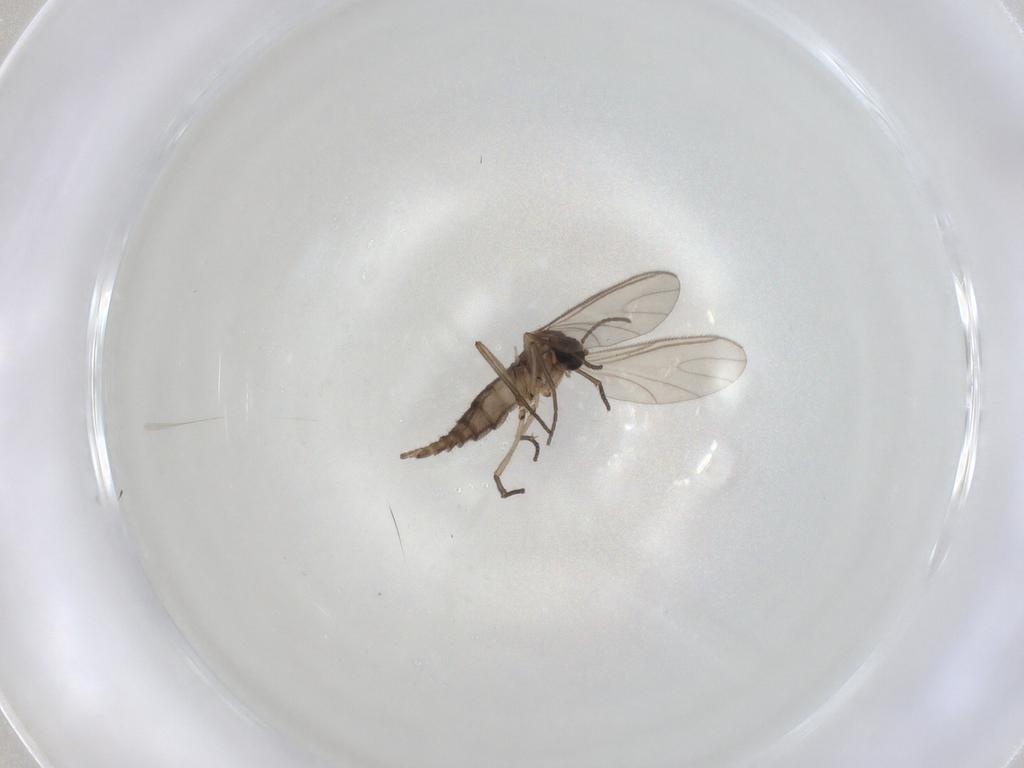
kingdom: Animalia
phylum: Arthropoda
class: Insecta
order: Diptera
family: Sciaridae
